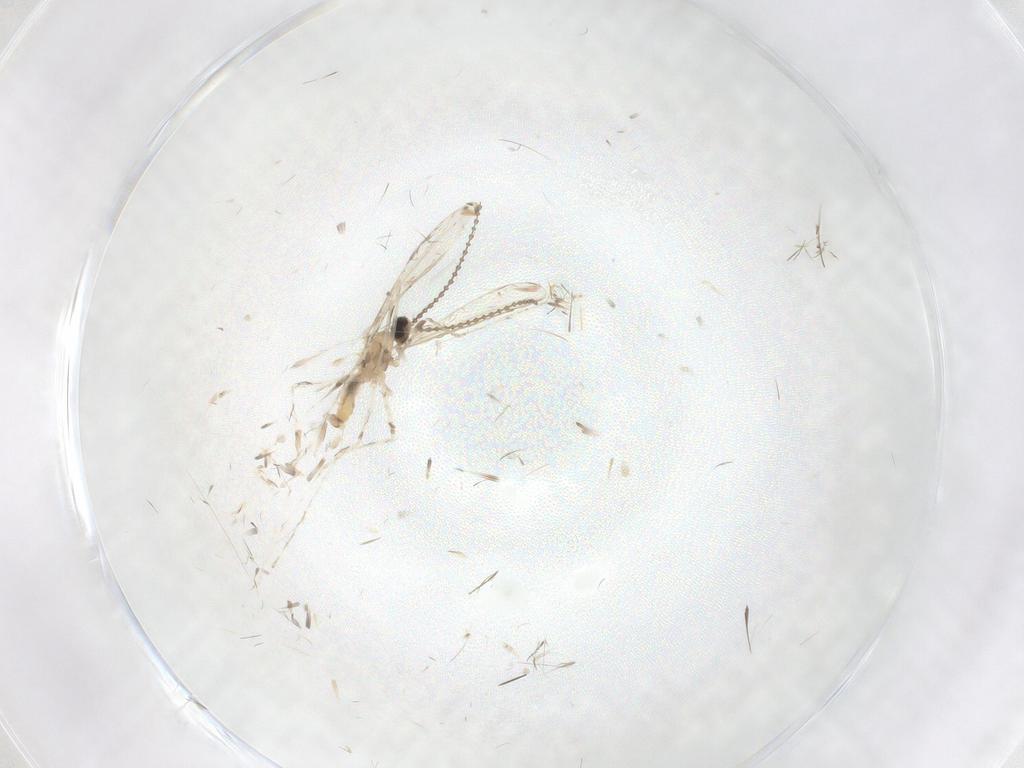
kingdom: Animalia
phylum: Arthropoda
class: Insecta
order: Diptera
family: Cecidomyiidae
